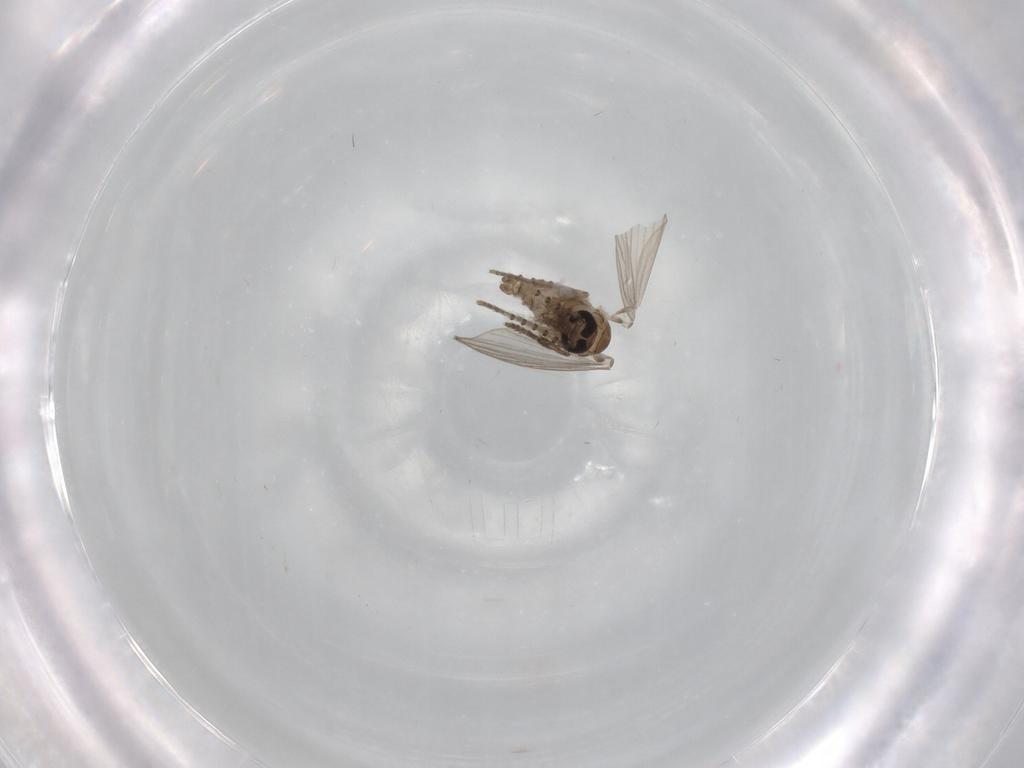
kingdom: Animalia
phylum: Arthropoda
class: Insecta
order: Diptera
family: Psychodidae
